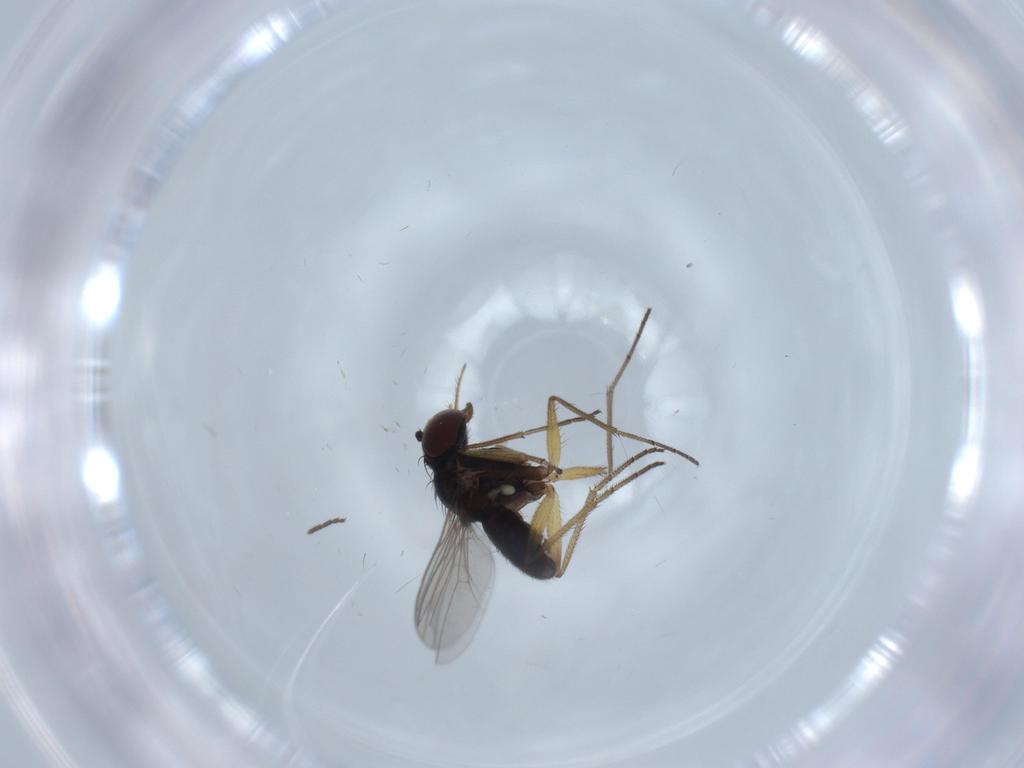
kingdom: Animalia
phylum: Arthropoda
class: Insecta
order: Diptera
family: Dolichopodidae
